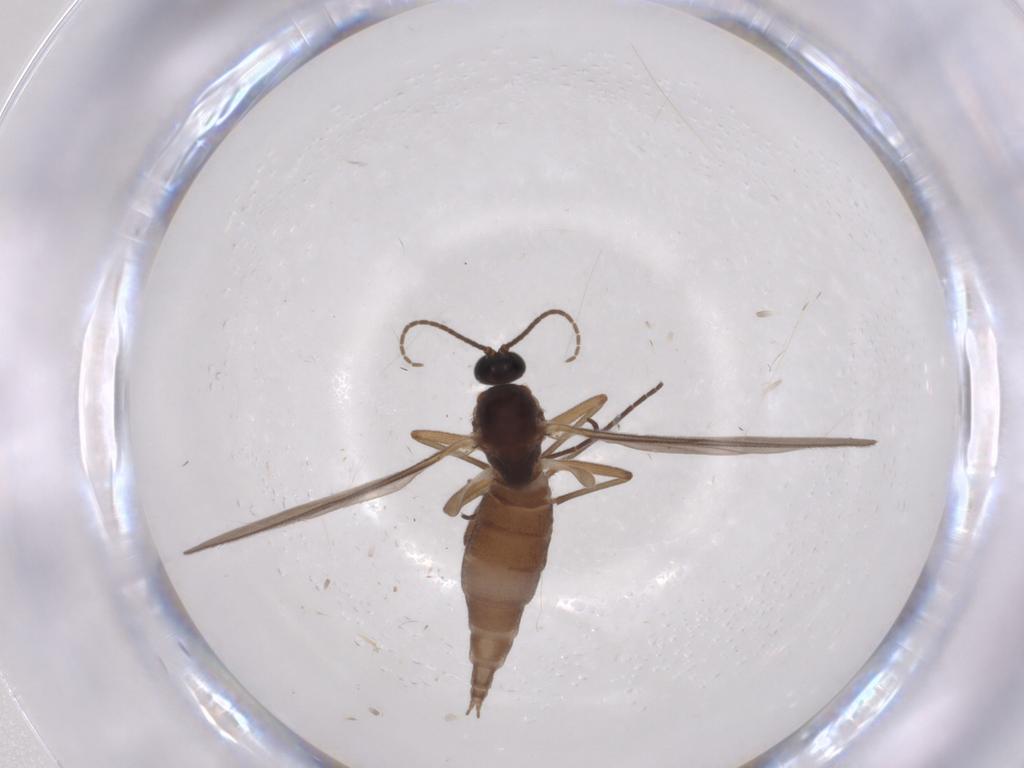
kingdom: Animalia
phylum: Arthropoda
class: Insecta
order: Diptera
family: Sciaridae
